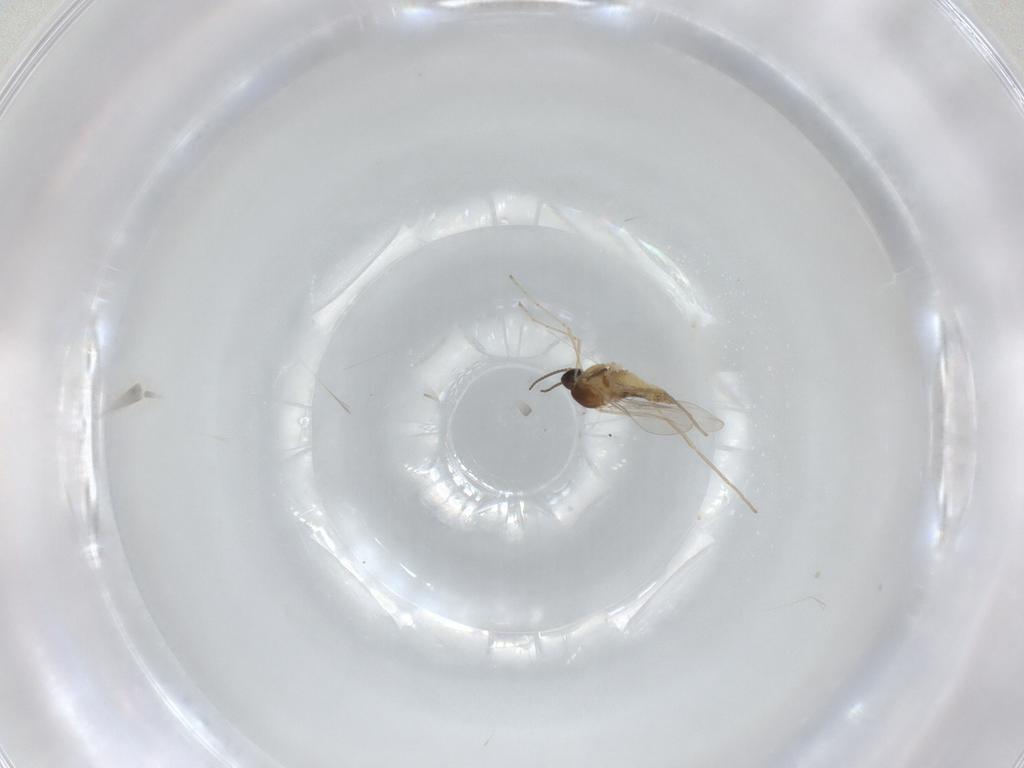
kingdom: Animalia
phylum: Arthropoda
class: Insecta
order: Diptera
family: Cecidomyiidae
